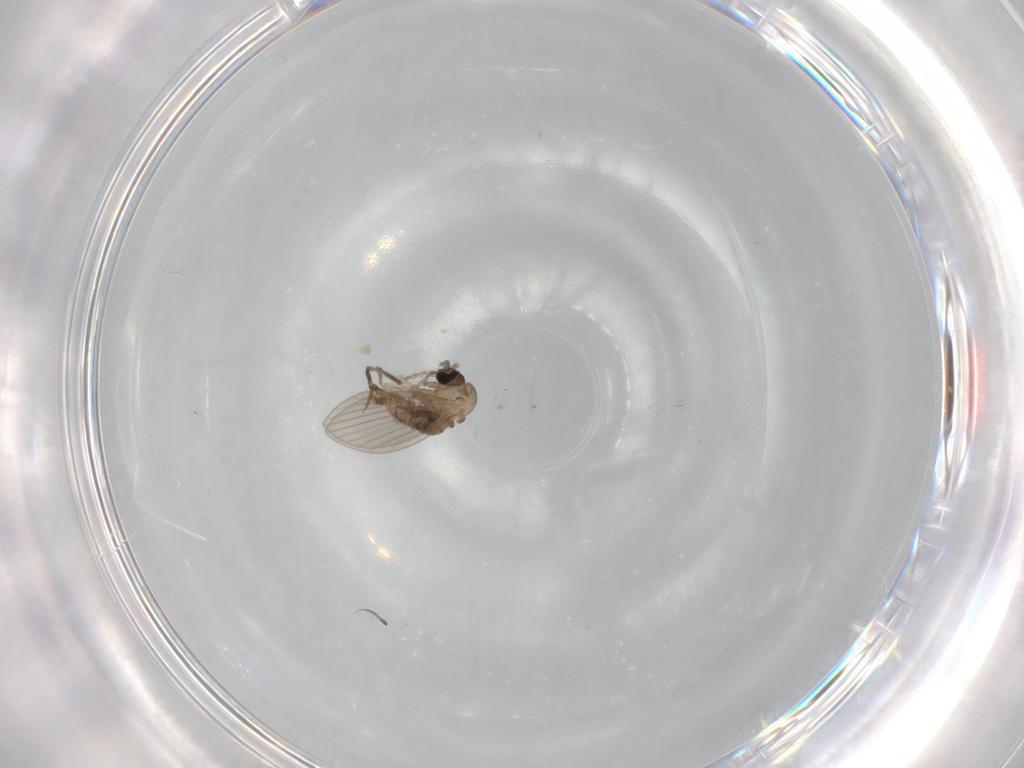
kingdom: Animalia
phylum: Arthropoda
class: Insecta
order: Diptera
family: Psychodidae
